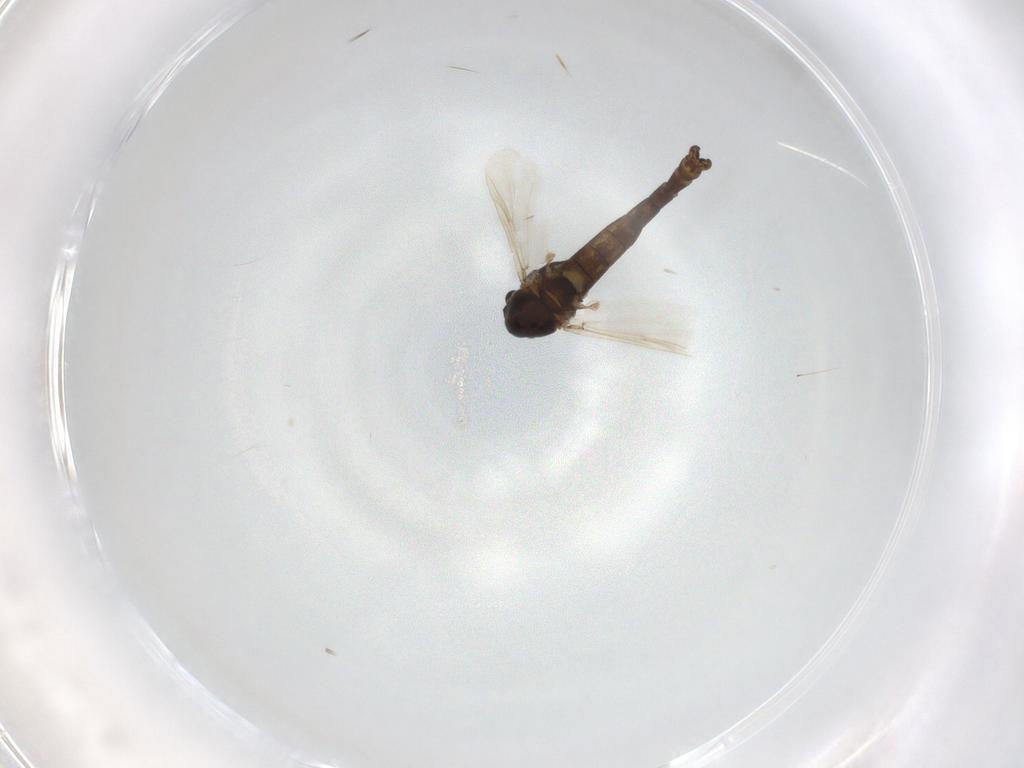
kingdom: Animalia
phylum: Arthropoda
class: Insecta
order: Diptera
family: Chironomidae
